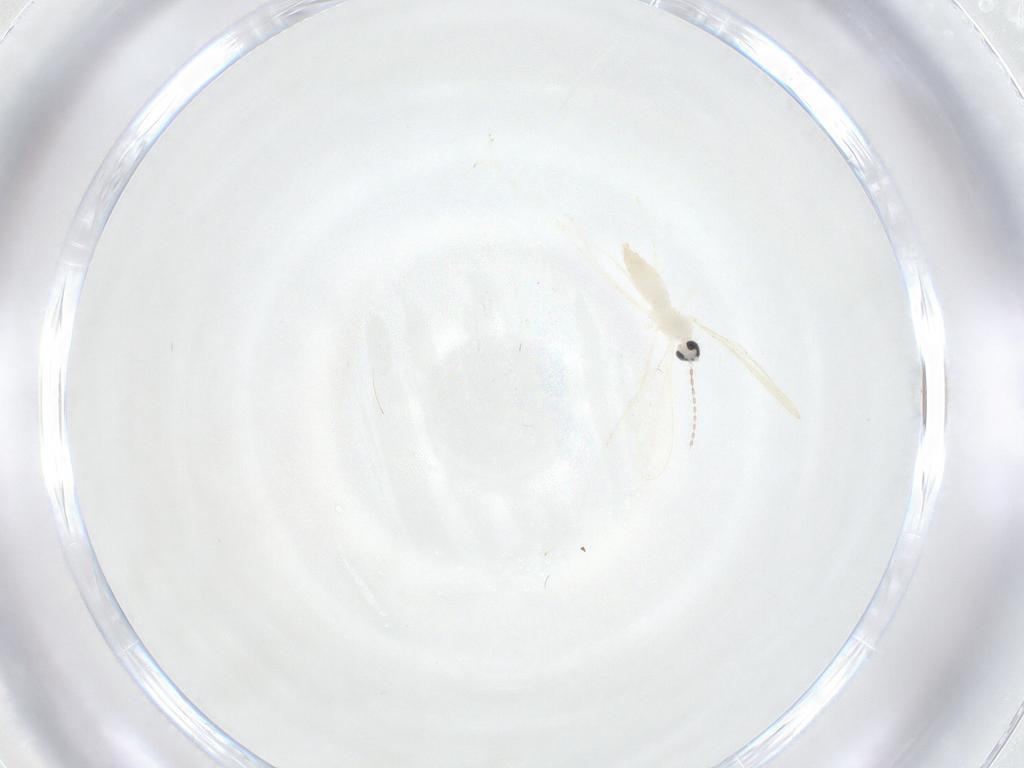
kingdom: Animalia
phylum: Arthropoda
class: Insecta
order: Diptera
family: Cecidomyiidae
